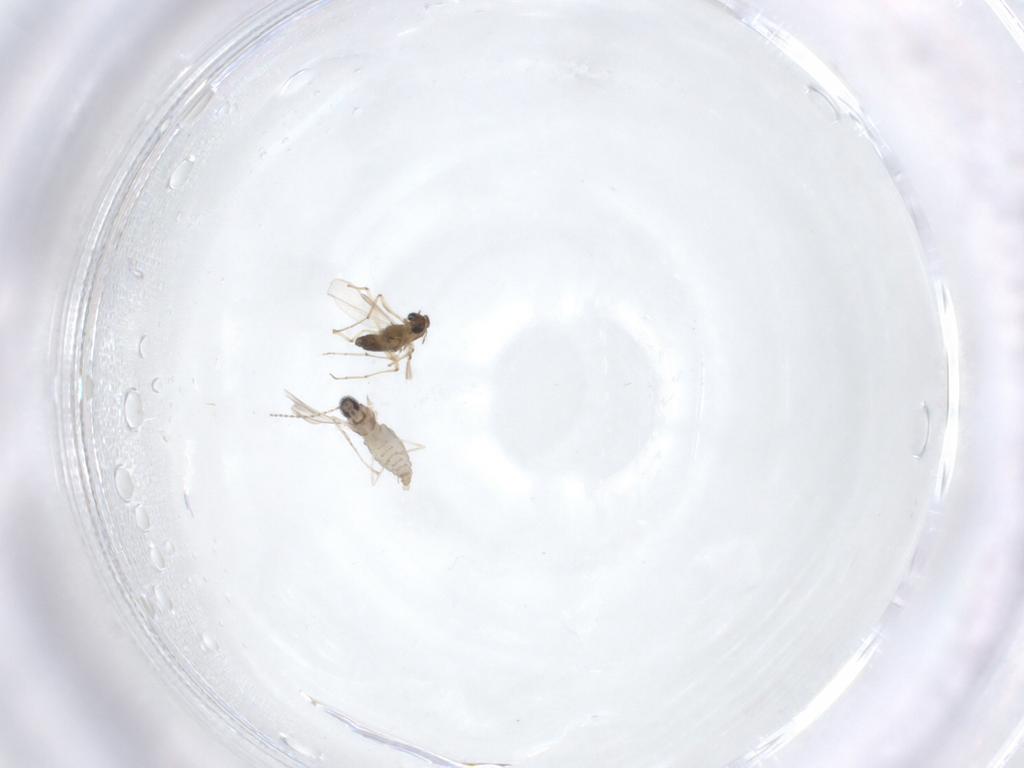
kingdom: Animalia
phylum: Arthropoda
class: Insecta
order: Diptera
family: Cecidomyiidae
